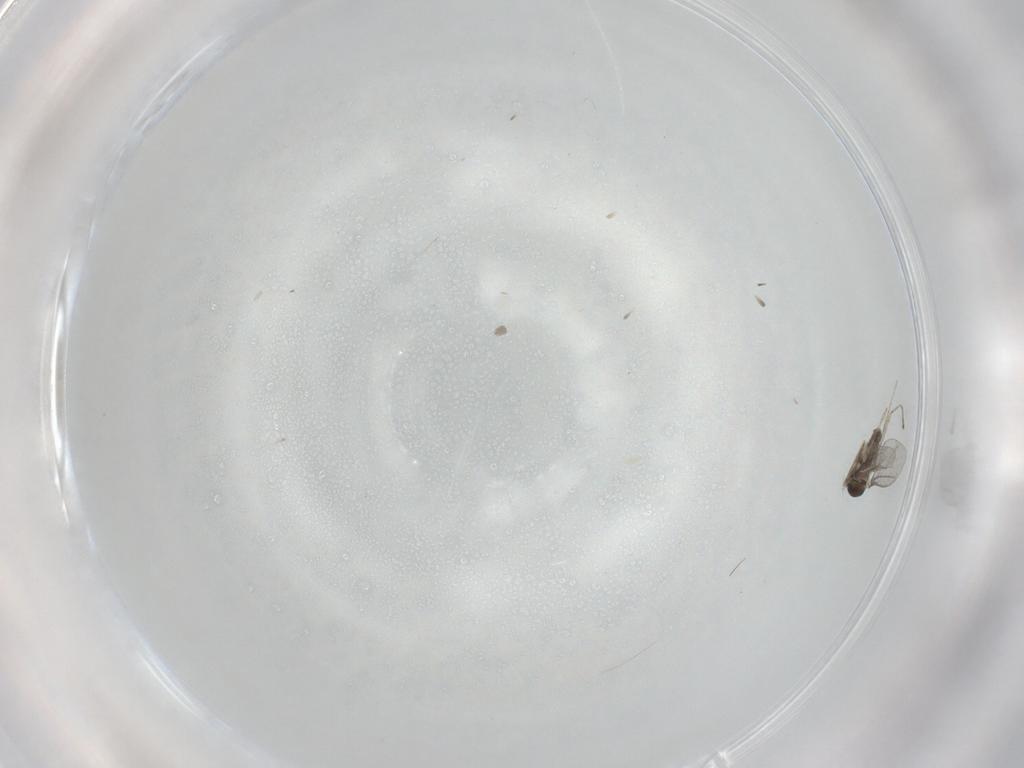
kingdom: Animalia
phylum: Arthropoda
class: Insecta
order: Diptera
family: Cecidomyiidae
